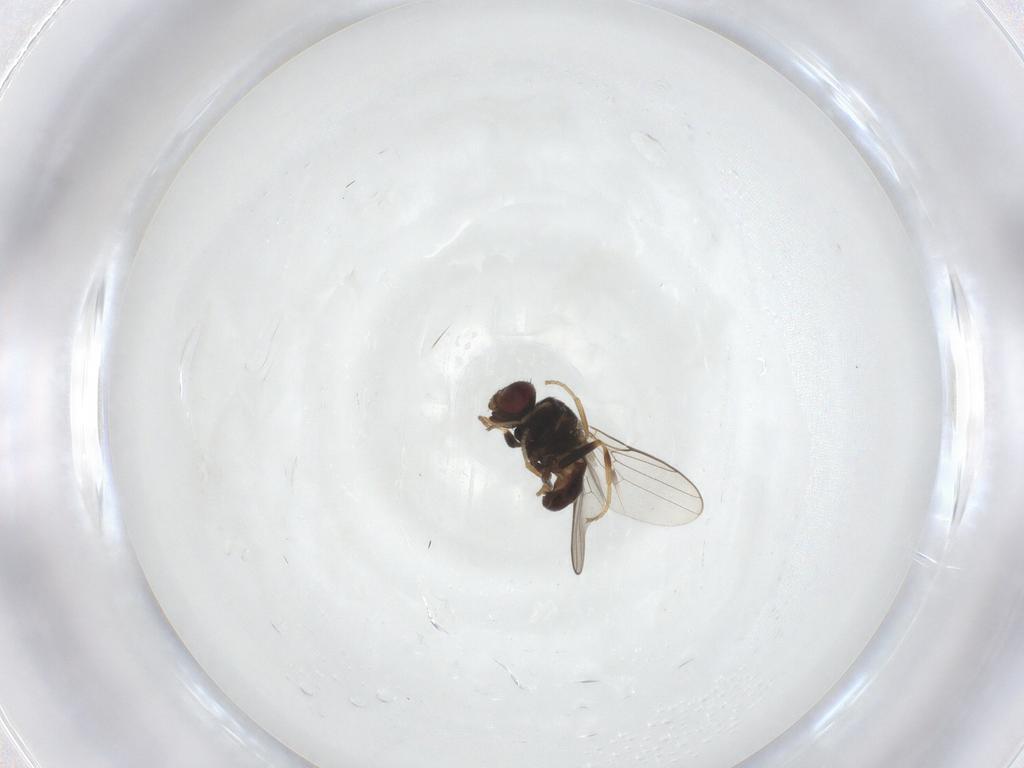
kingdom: Animalia
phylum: Arthropoda
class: Insecta
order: Diptera
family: Chloropidae
